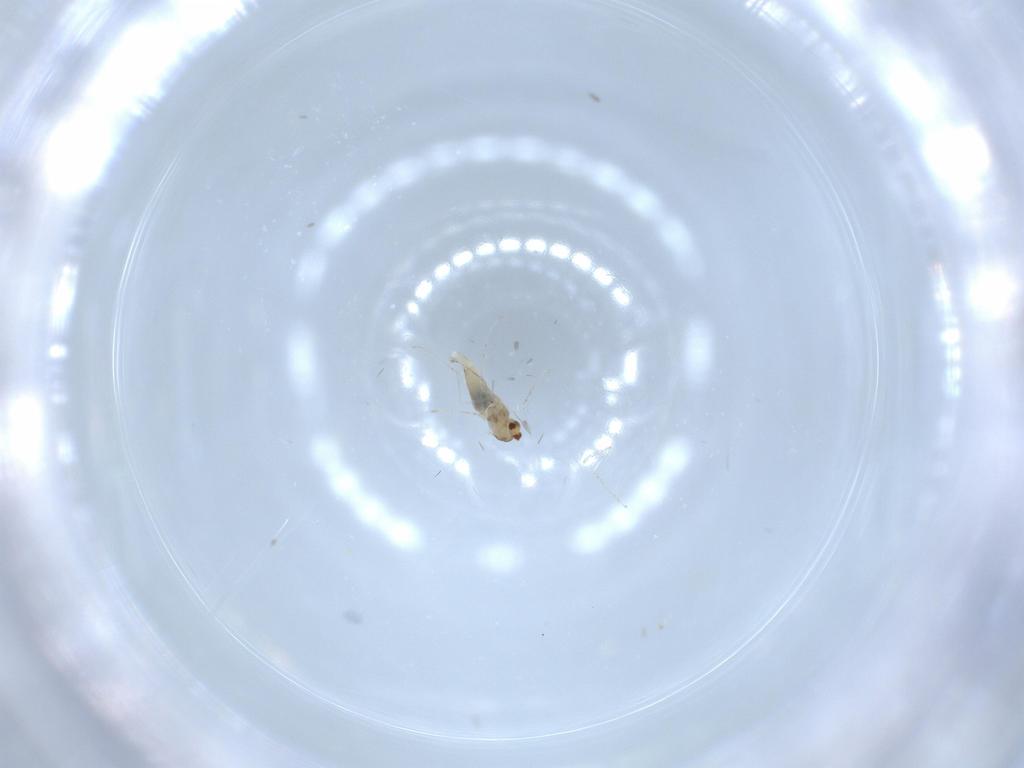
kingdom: Animalia
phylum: Arthropoda
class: Insecta
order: Diptera
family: Cecidomyiidae
